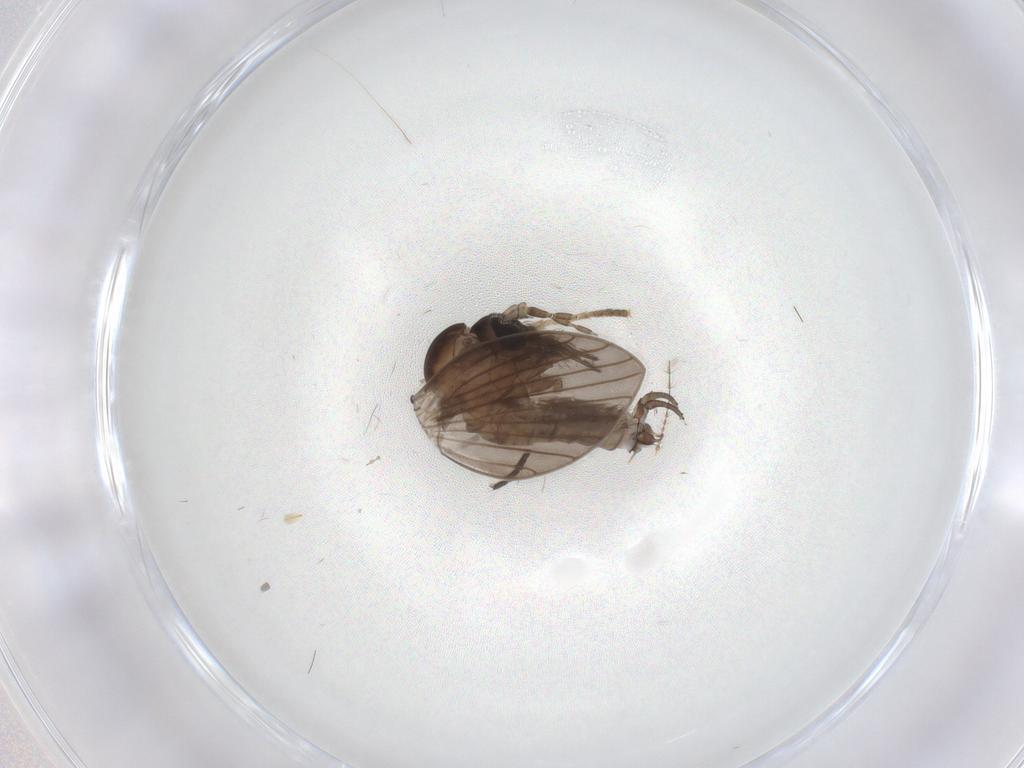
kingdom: Animalia
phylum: Arthropoda
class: Insecta
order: Diptera
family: Psychodidae
